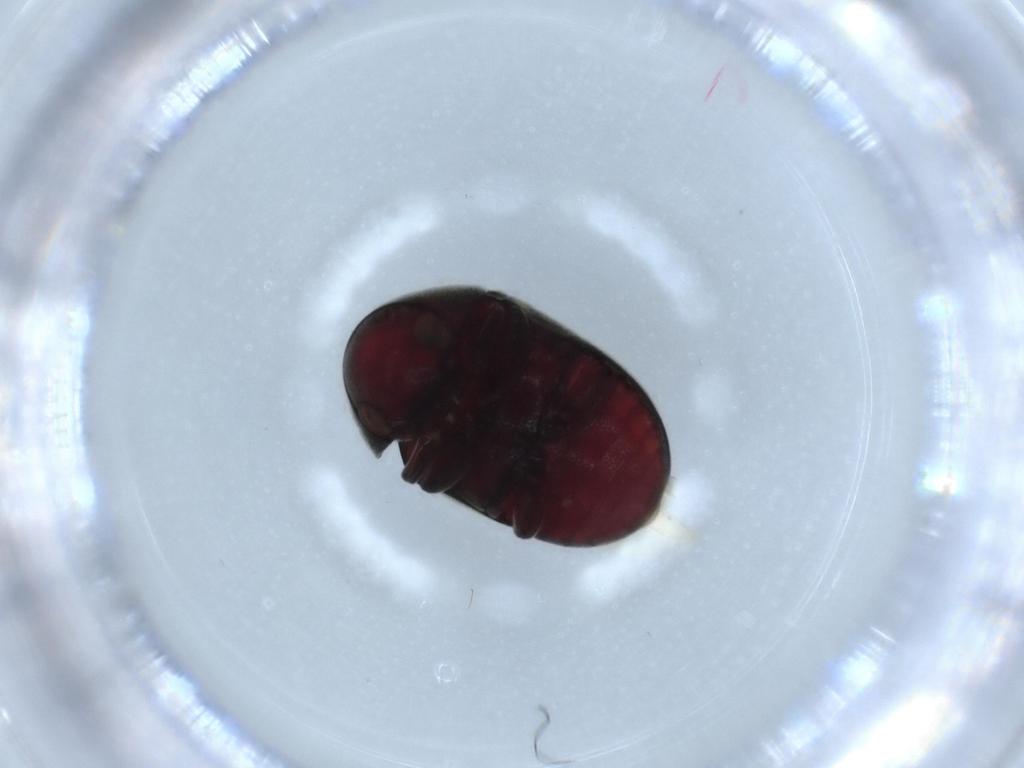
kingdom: Animalia
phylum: Arthropoda
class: Insecta
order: Coleoptera
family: Ptinidae
